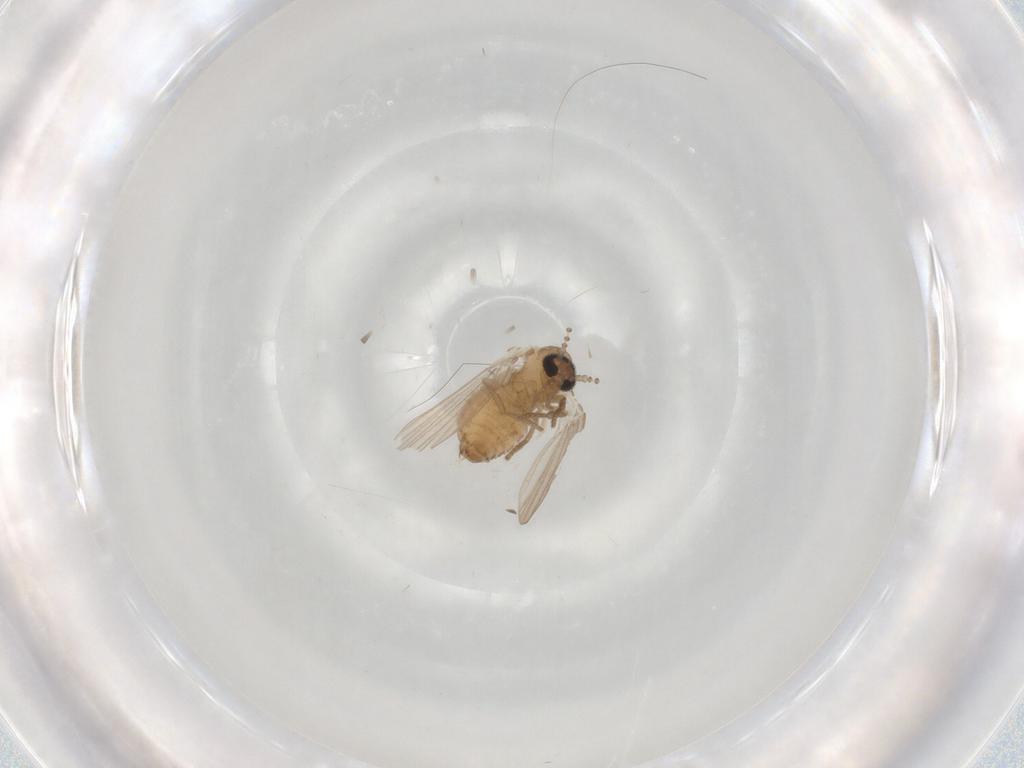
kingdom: Animalia
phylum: Arthropoda
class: Insecta
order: Diptera
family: Psychodidae
